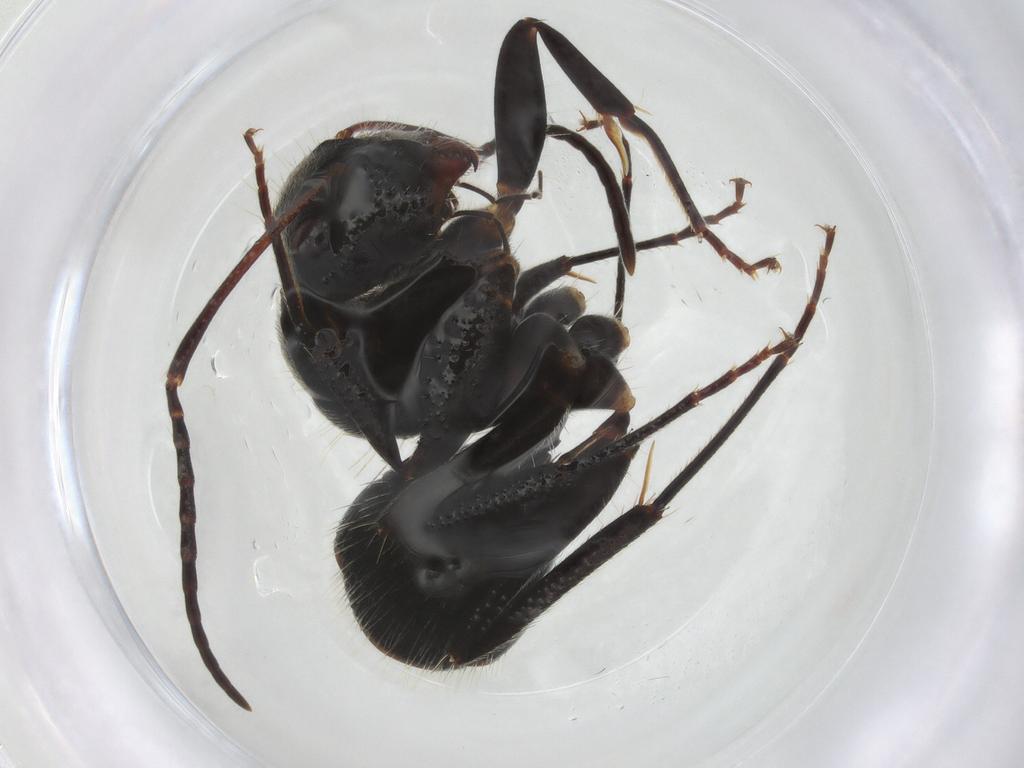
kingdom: Animalia
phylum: Arthropoda
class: Insecta
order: Hymenoptera
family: Formicidae
